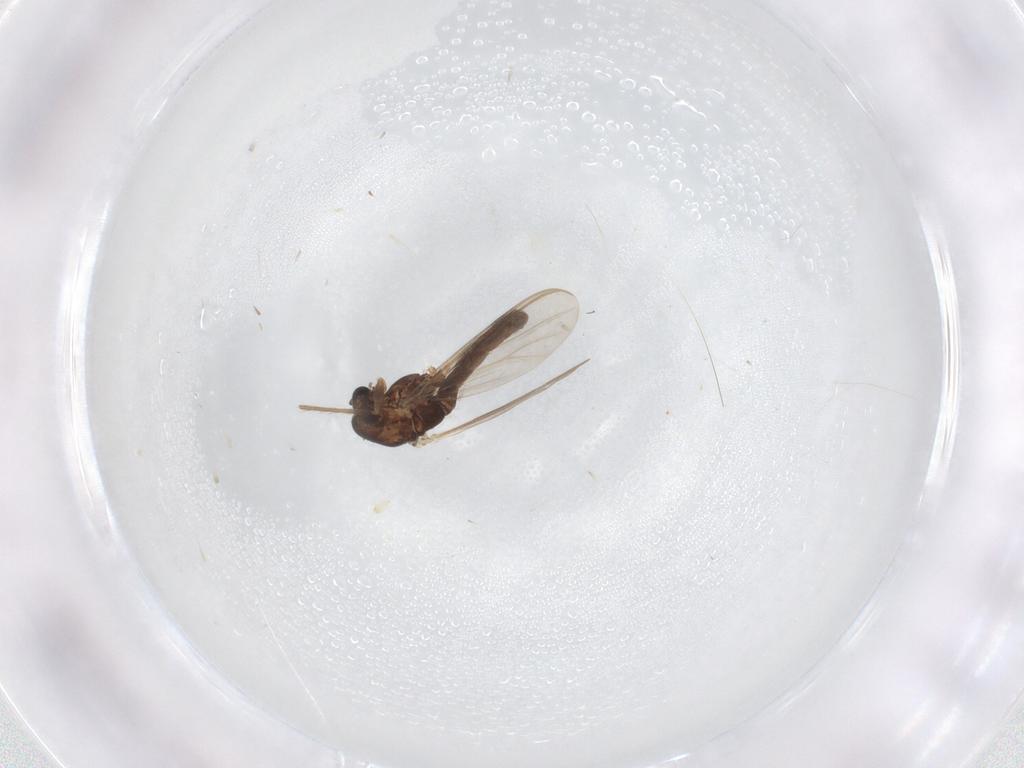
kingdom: Animalia
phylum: Arthropoda
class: Insecta
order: Diptera
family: Chironomidae
